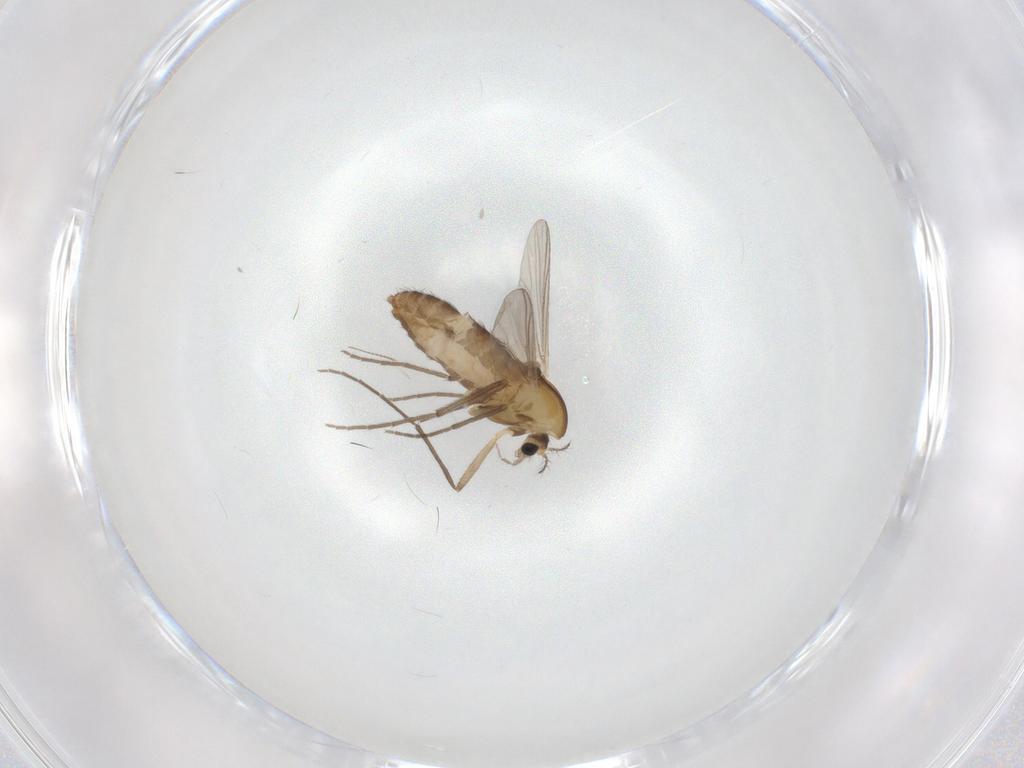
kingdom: Animalia
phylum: Arthropoda
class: Insecta
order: Diptera
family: Chironomidae
